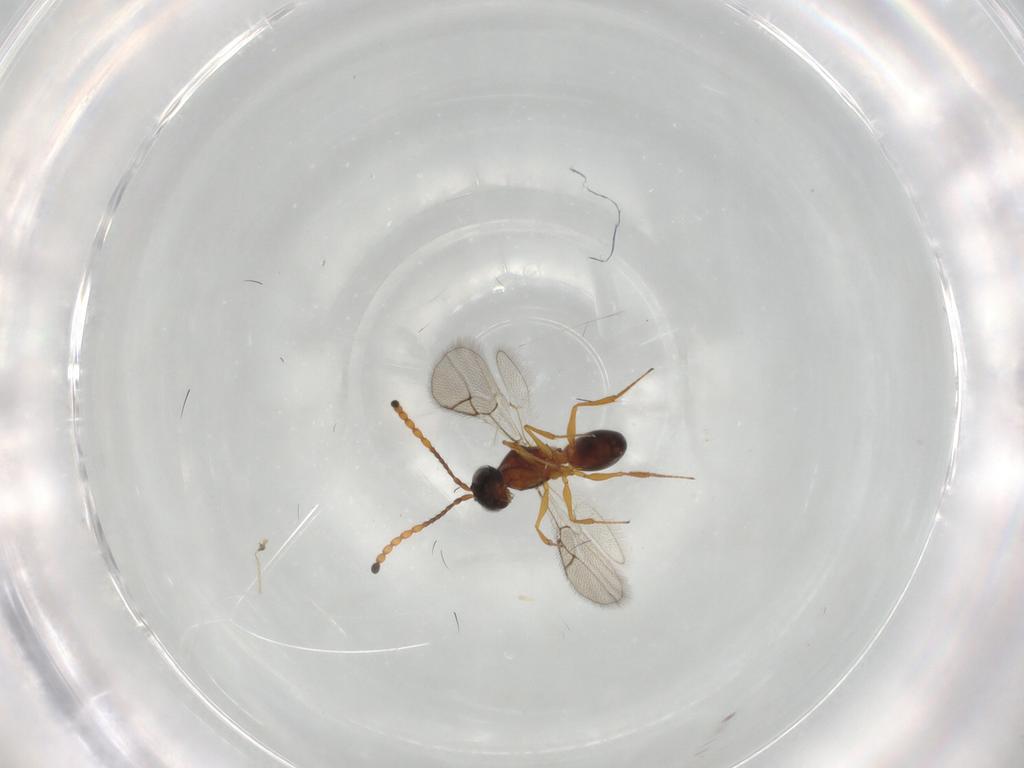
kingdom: Animalia
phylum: Arthropoda
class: Insecta
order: Hymenoptera
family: Figitidae
